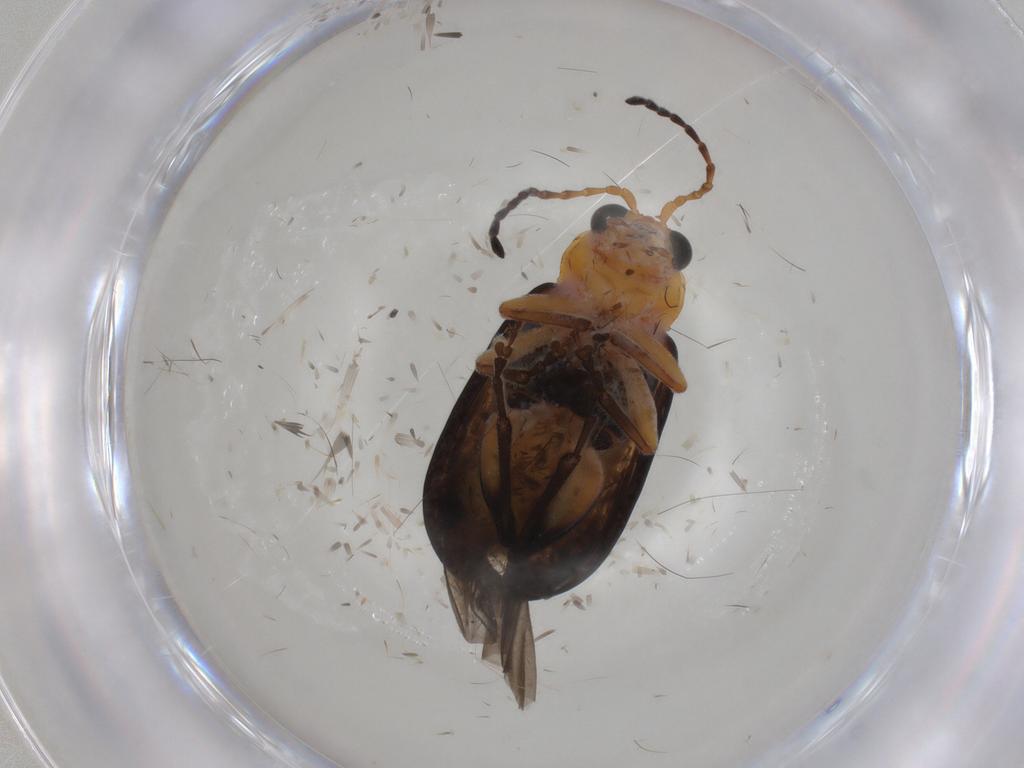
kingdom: Animalia
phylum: Arthropoda
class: Insecta
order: Coleoptera
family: Chrysomelidae
